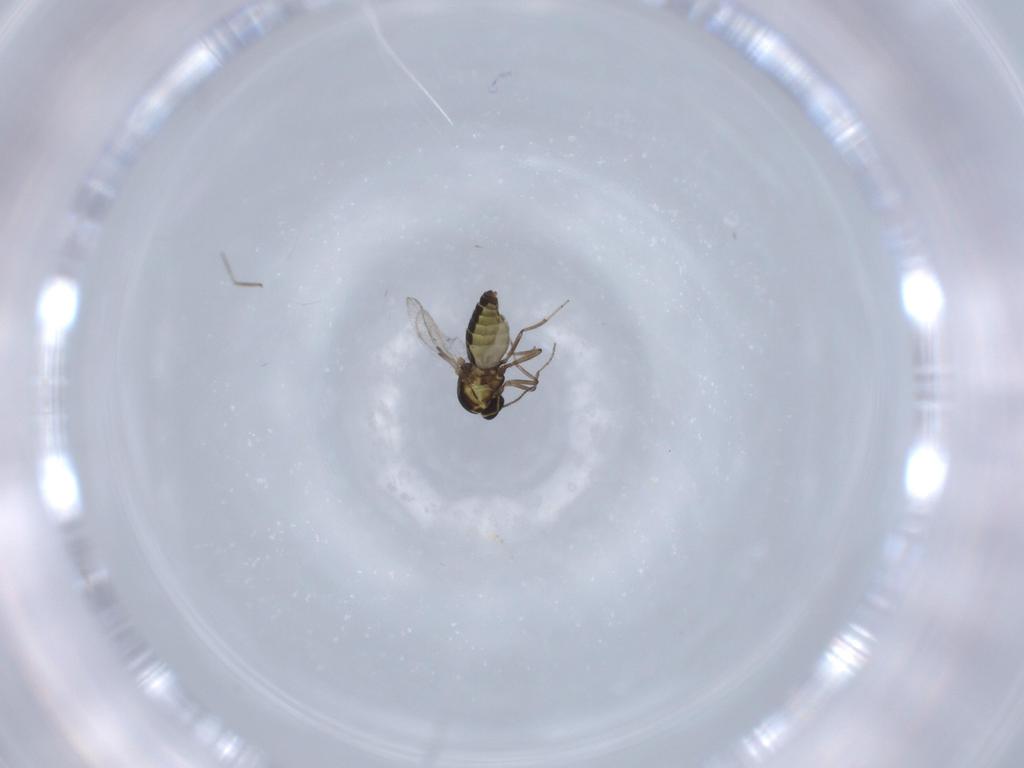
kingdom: Animalia
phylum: Arthropoda
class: Insecta
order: Diptera
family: Ceratopogonidae
